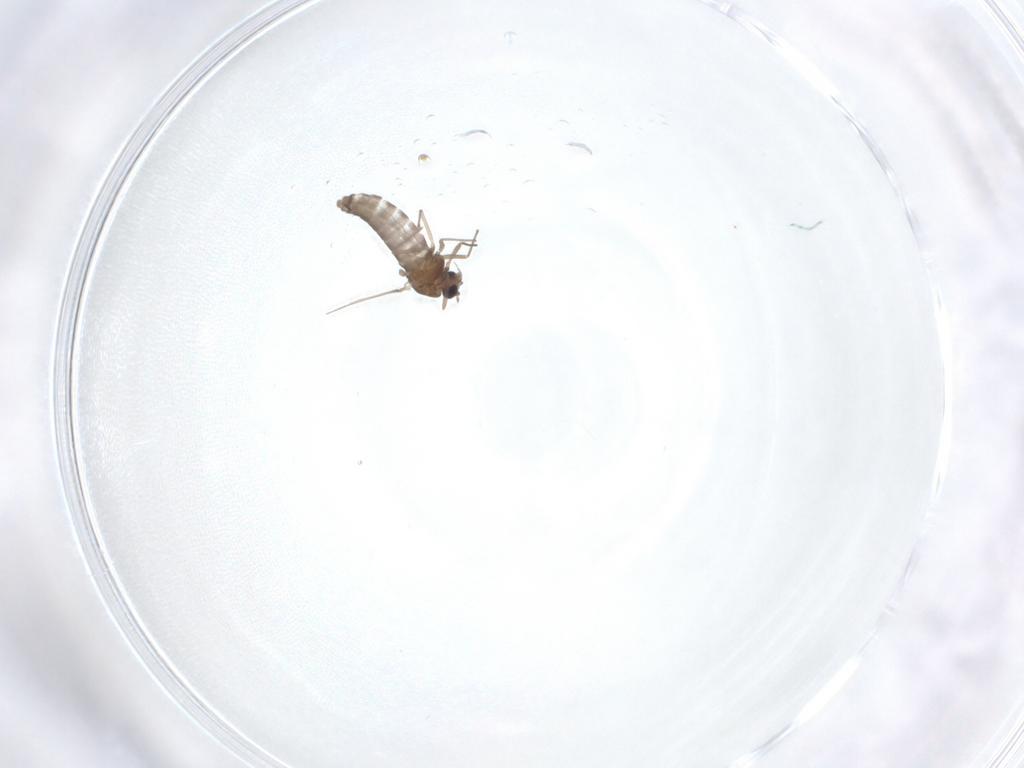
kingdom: Animalia
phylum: Arthropoda
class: Insecta
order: Diptera
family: Chironomidae
